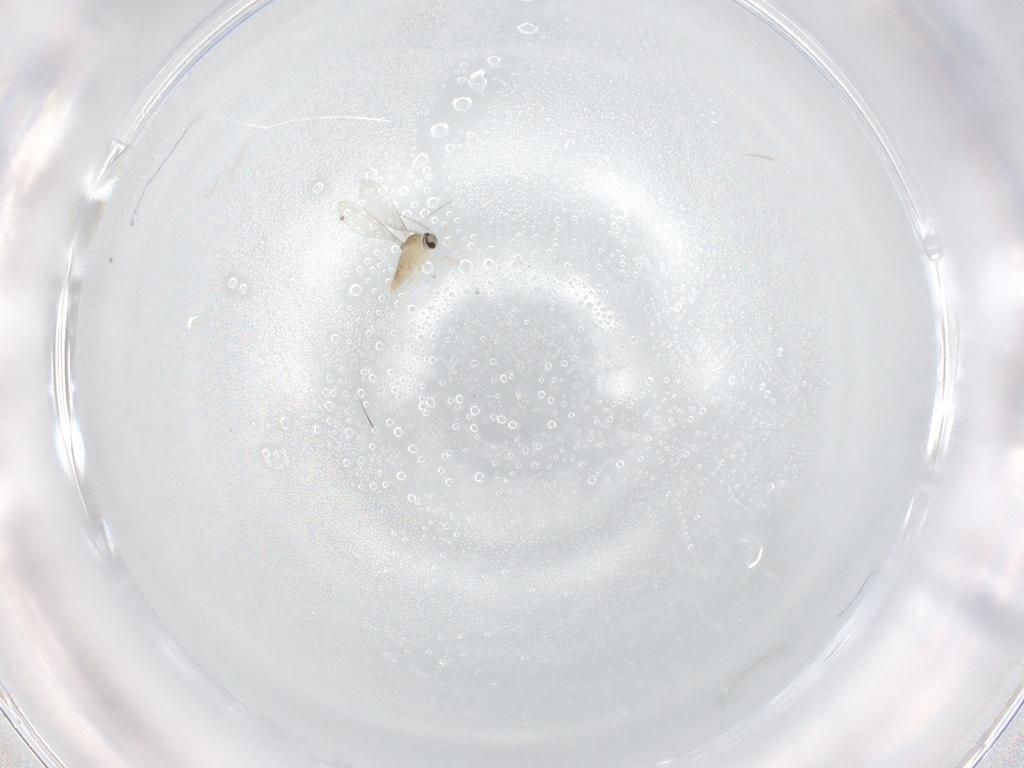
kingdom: Animalia
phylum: Arthropoda
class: Insecta
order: Diptera
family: Cecidomyiidae
